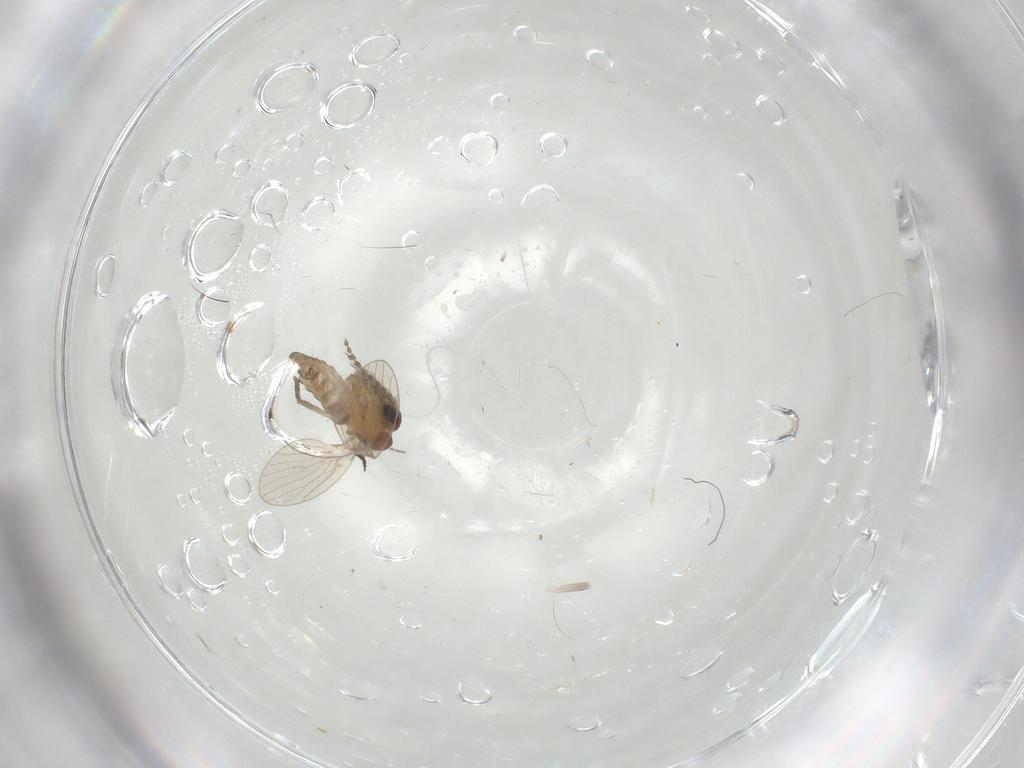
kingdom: Animalia
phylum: Arthropoda
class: Insecta
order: Diptera
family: Psychodidae
